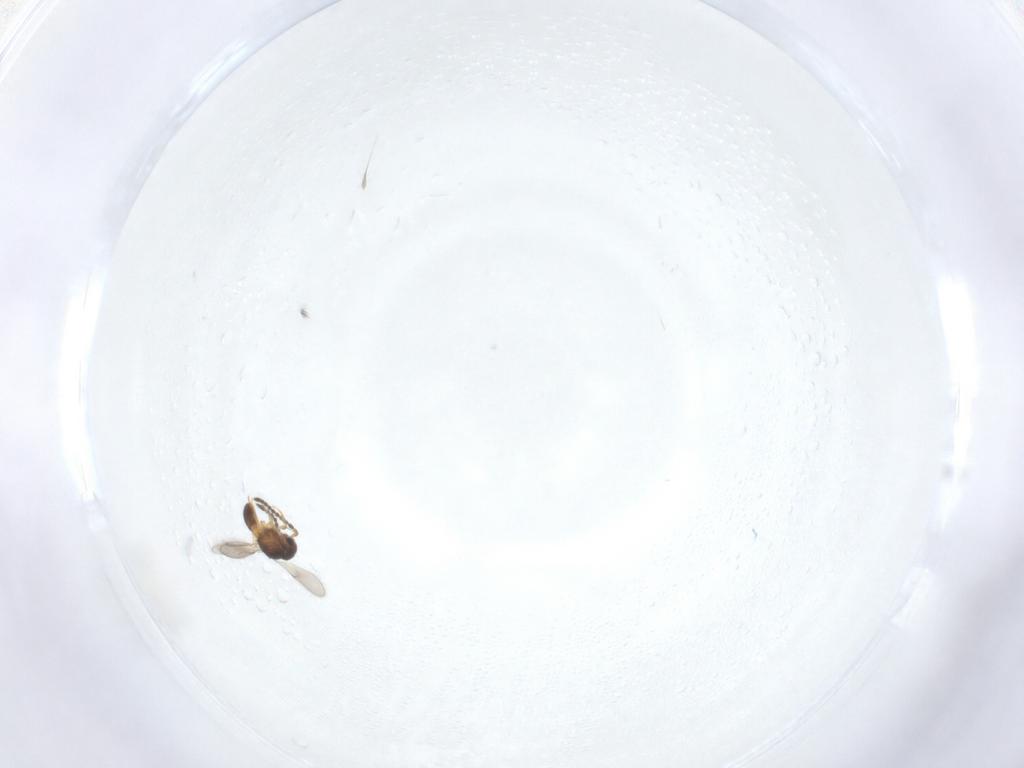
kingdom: Animalia
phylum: Arthropoda
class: Insecta
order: Hymenoptera
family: Scelionidae
